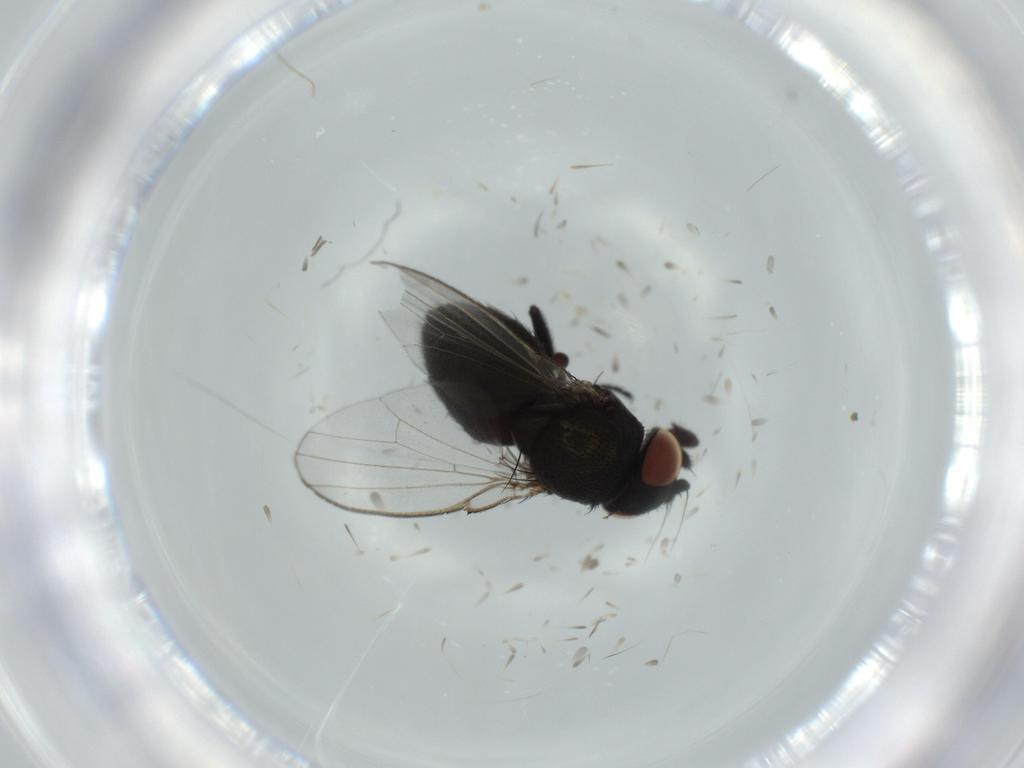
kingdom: Animalia
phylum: Arthropoda
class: Insecta
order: Diptera
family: Milichiidae
